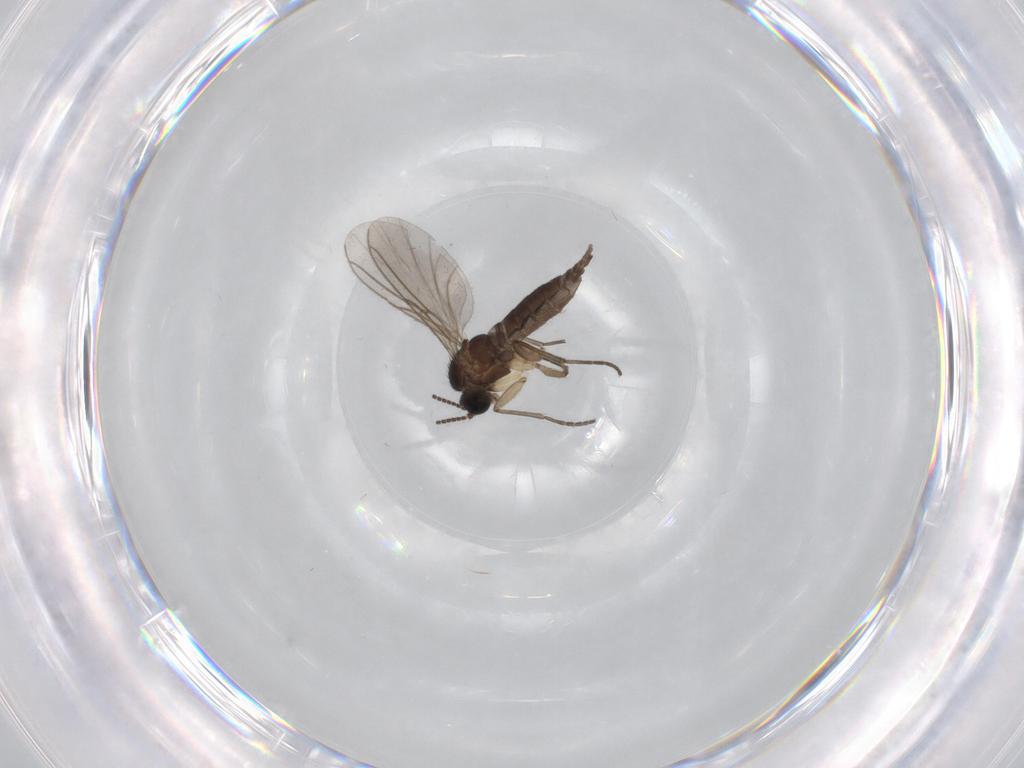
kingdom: Animalia
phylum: Arthropoda
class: Insecta
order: Diptera
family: Sciaridae
